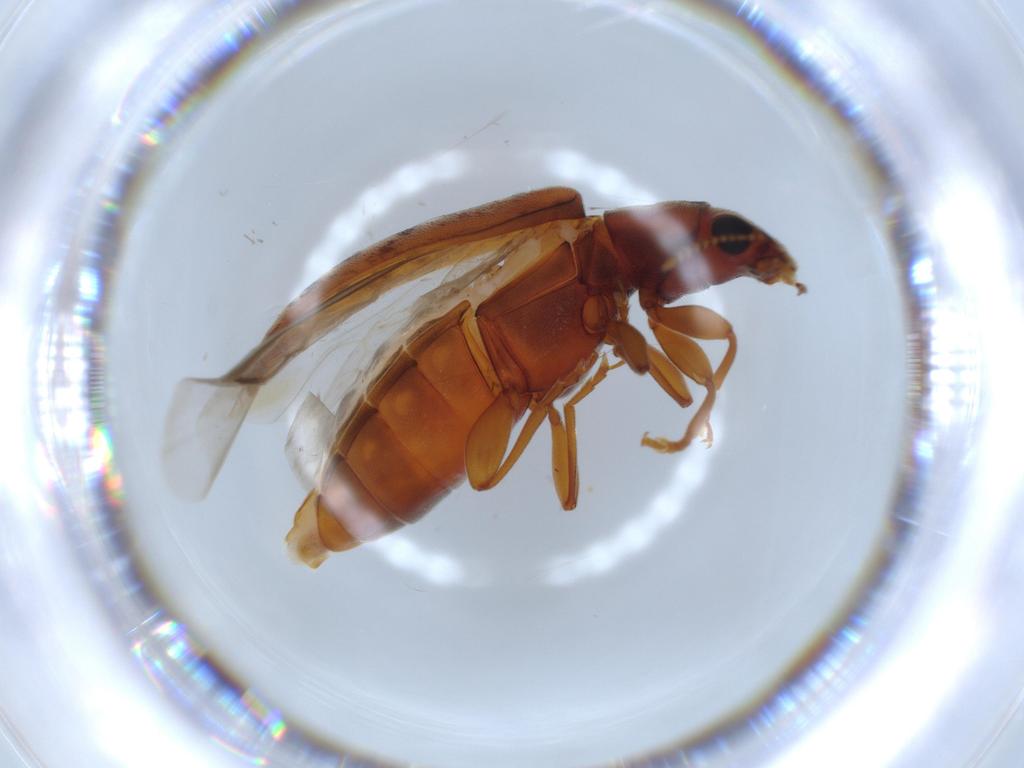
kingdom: Animalia
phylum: Arthropoda
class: Insecta
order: Coleoptera
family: Mycteridae
